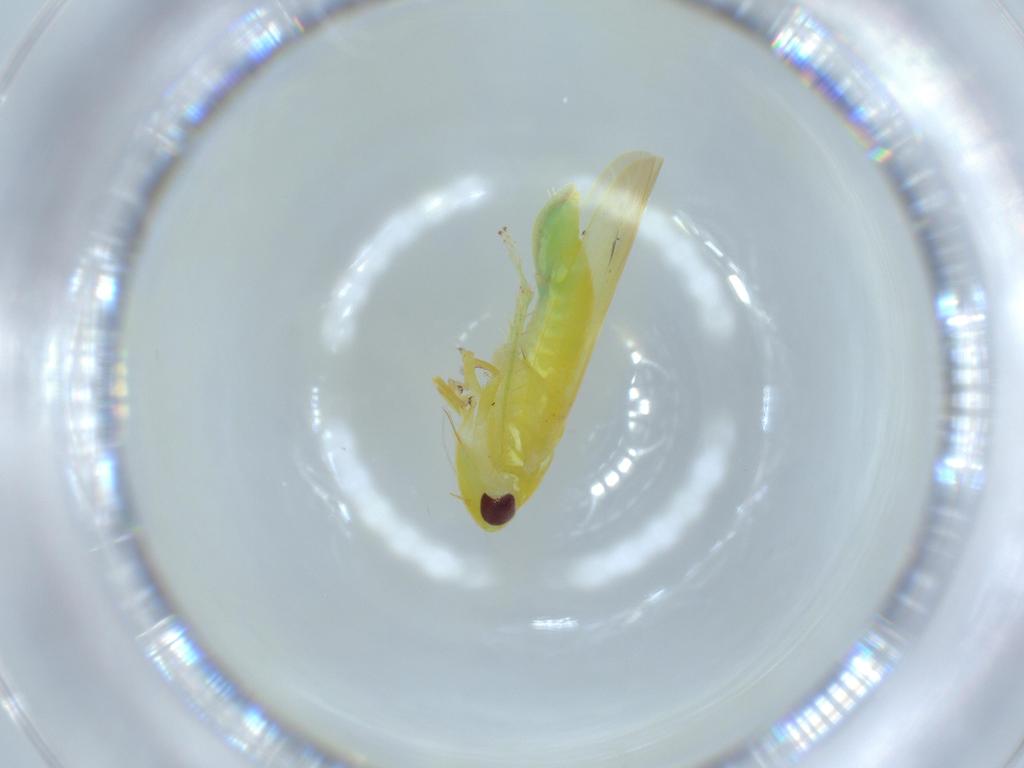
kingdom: Animalia
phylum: Arthropoda
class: Insecta
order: Hemiptera
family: Cicadellidae
